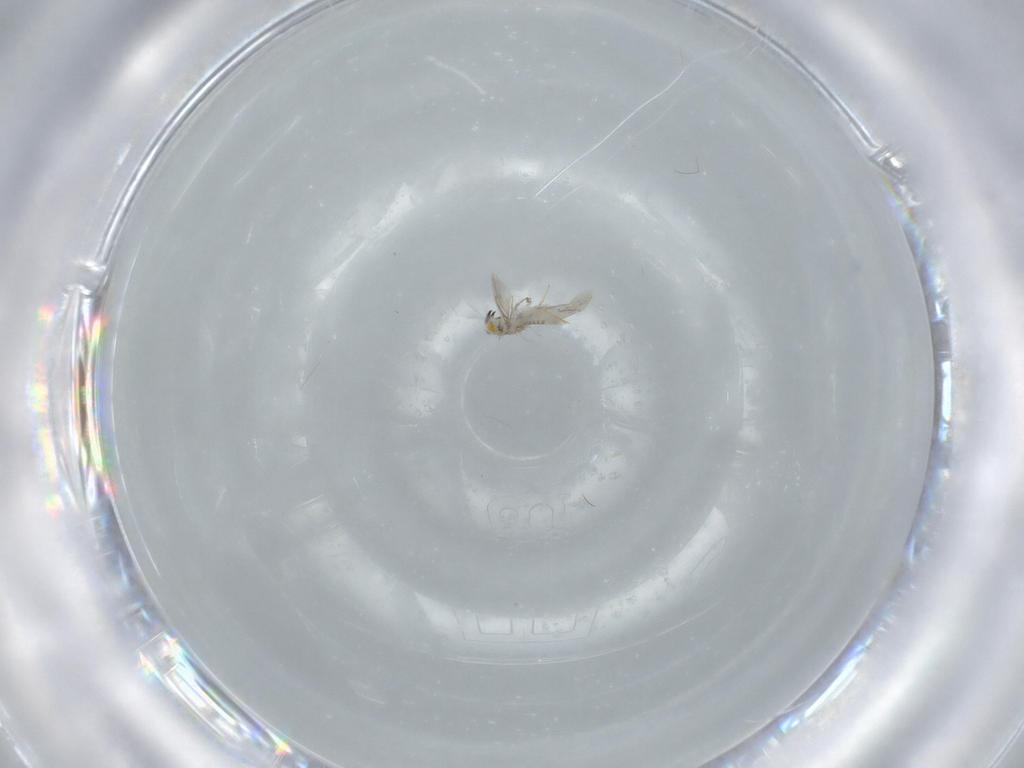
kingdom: Animalia
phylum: Arthropoda
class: Insecta
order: Hymenoptera
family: Aphelinidae
